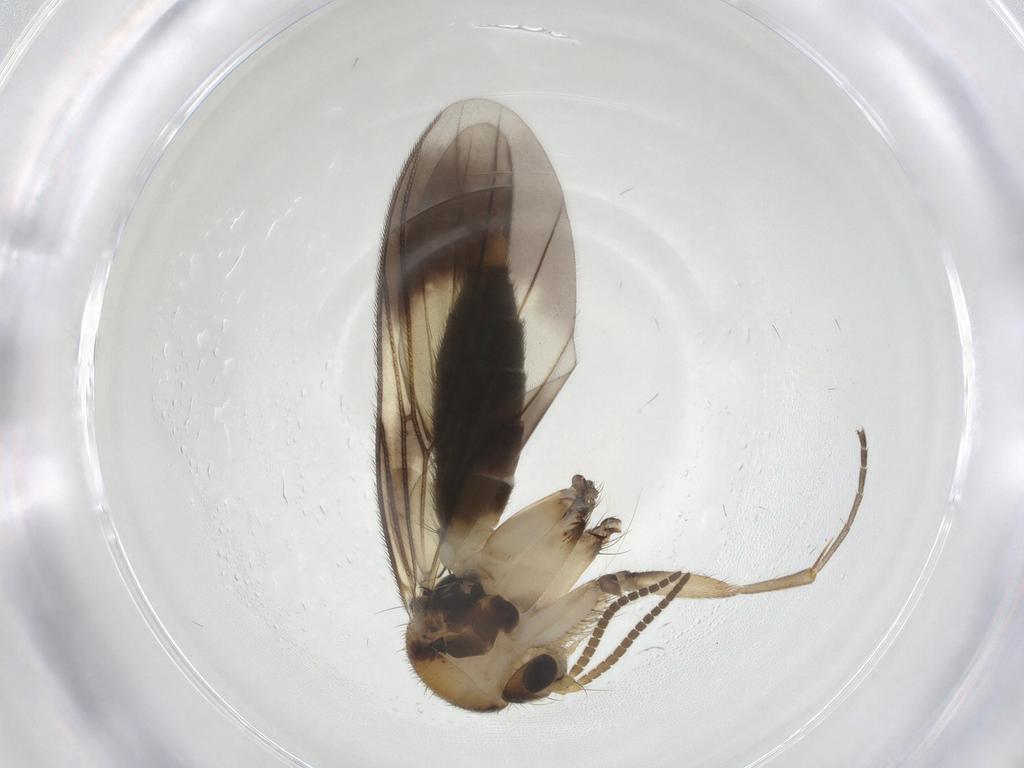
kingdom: Animalia
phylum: Arthropoda
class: Insecta
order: Diptera
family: Mycetophilidae
